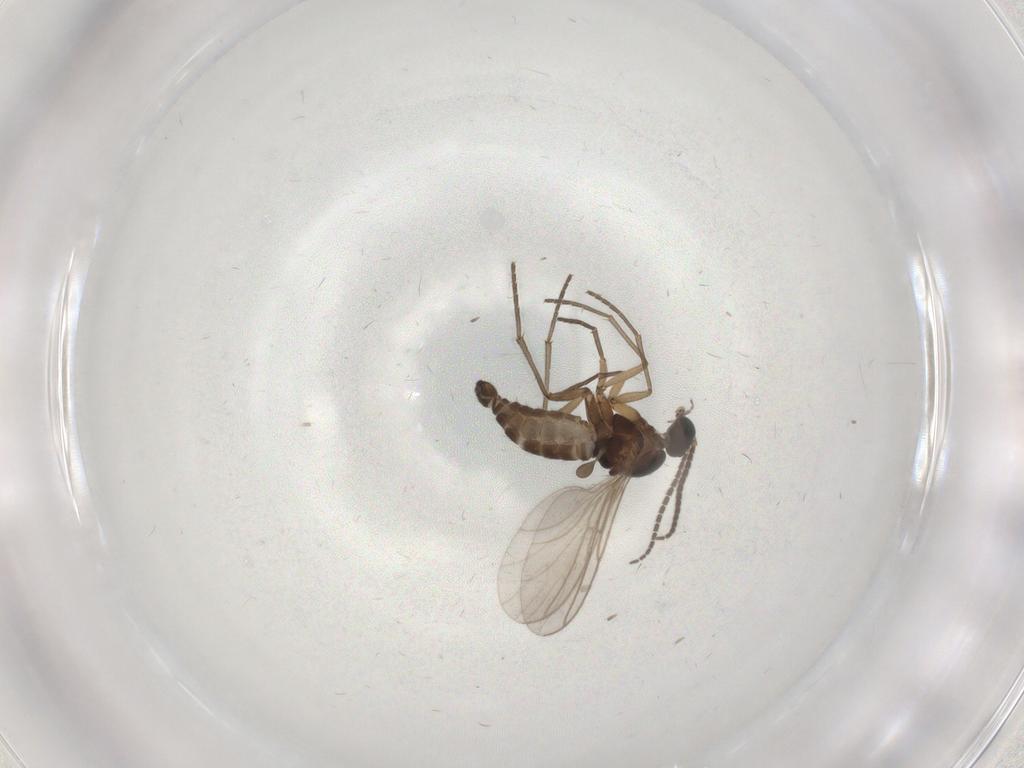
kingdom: Animalia
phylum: Arthropoda
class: Insecta
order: Diptera
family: Sciaridae
